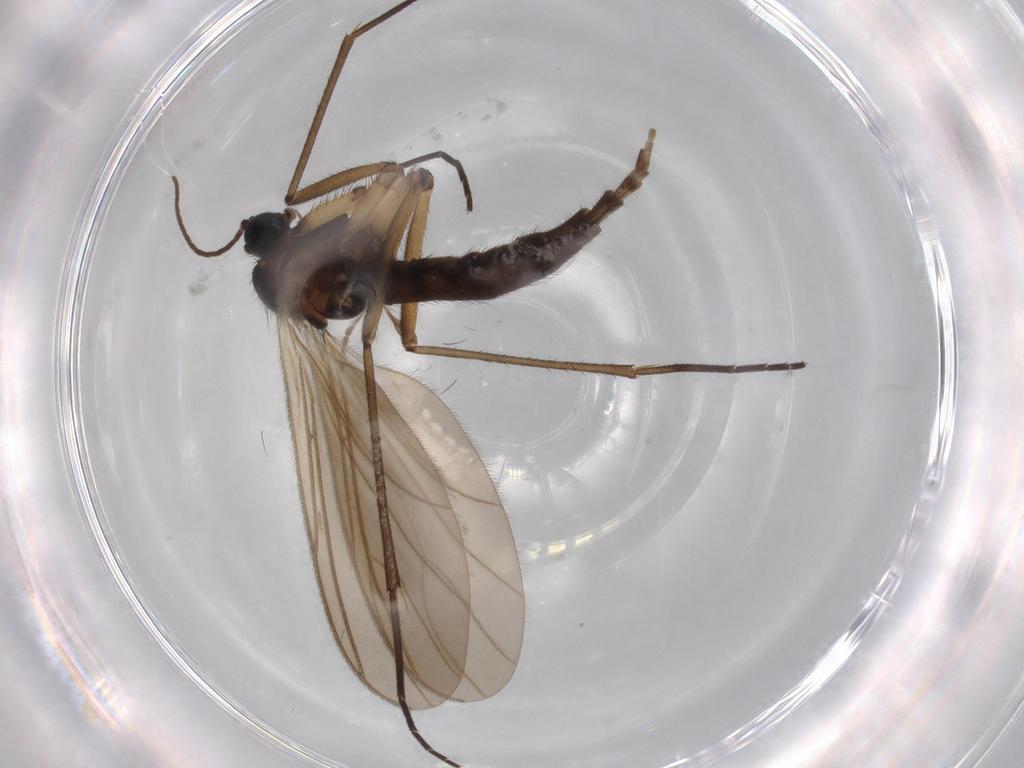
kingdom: Animalia
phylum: Arthropoda
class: Insecta
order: Diptera
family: Sciaridae
